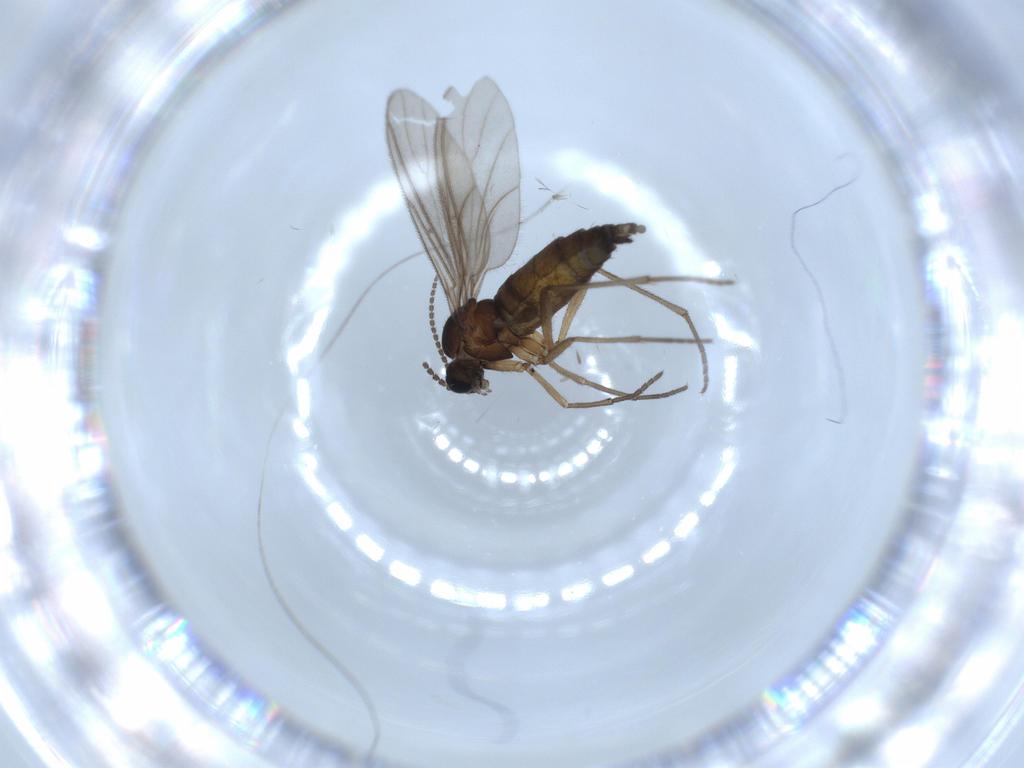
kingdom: Animalia
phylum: Arthropoda
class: Insecta
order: Diptera
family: Sciaridae
